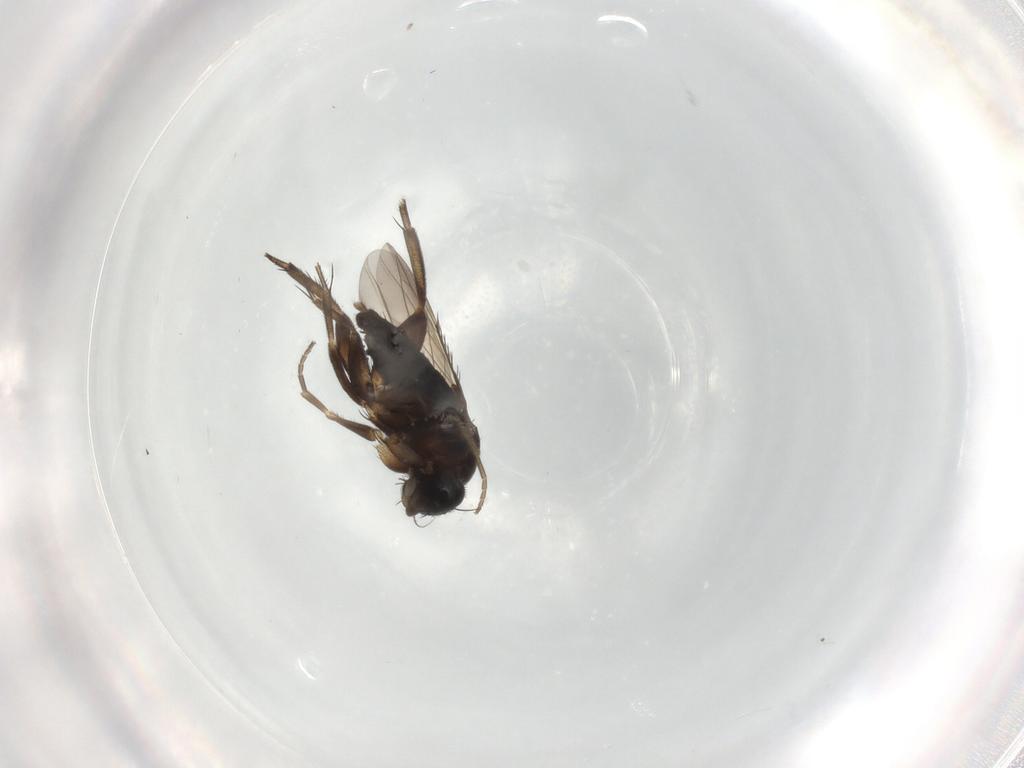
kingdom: Animalia
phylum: Arthropoda
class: Insecta
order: Diptera
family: Phoridae
